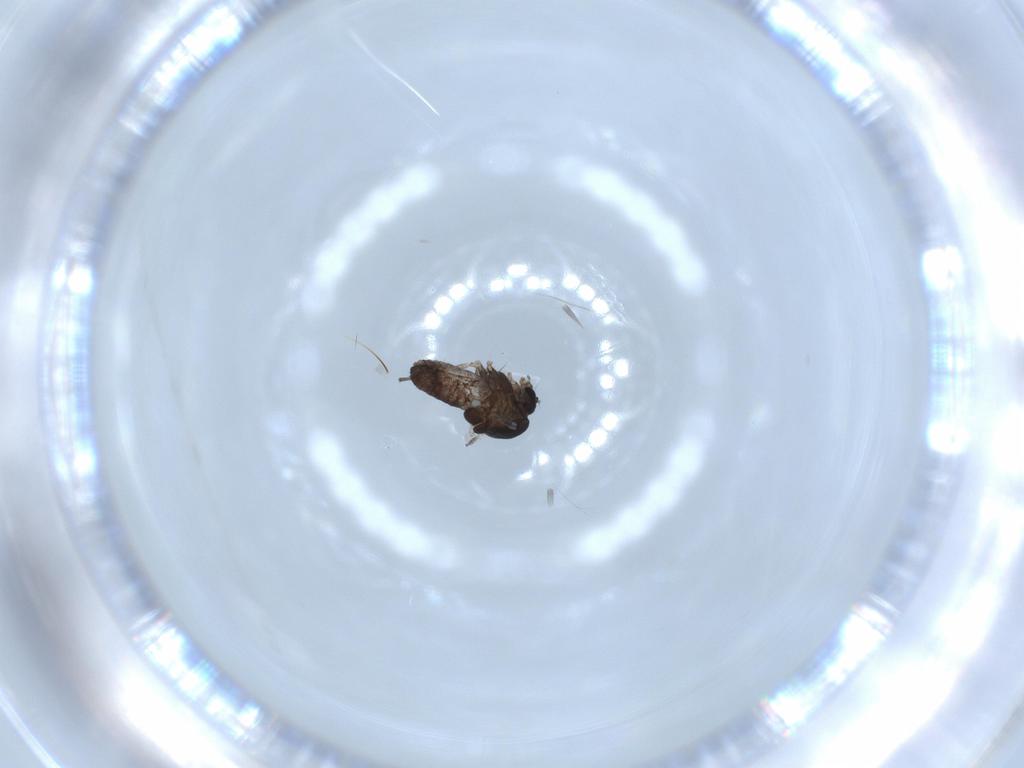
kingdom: Animalia
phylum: Arthropoda
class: Insecta
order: Diptera
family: Chironomidae
